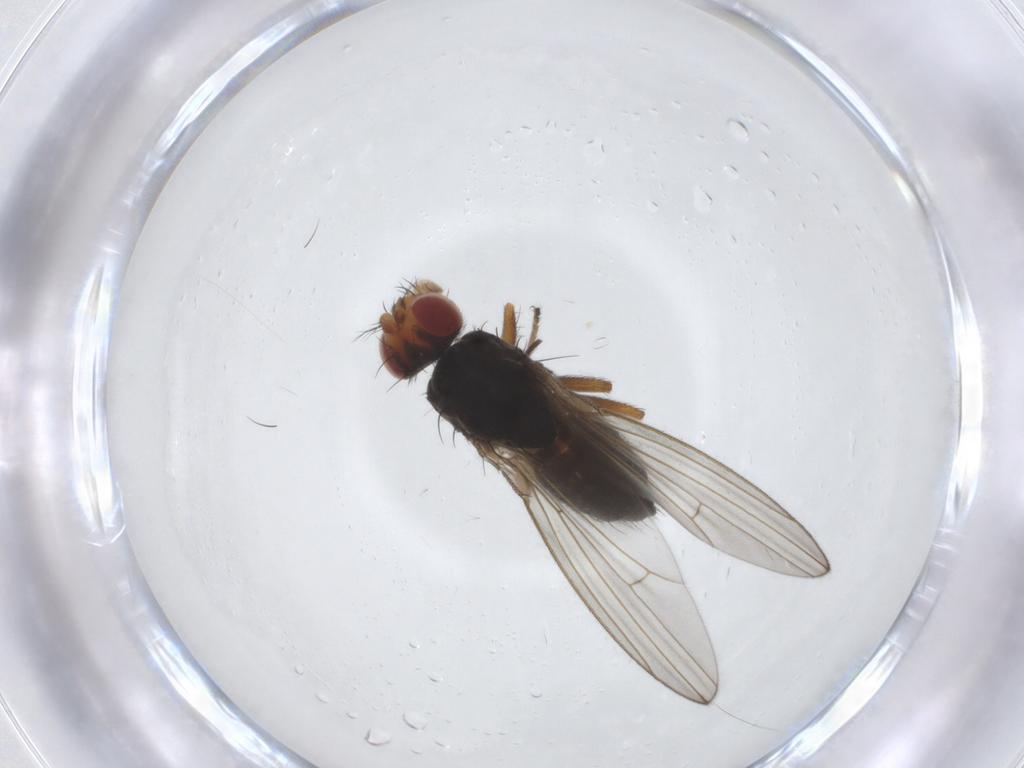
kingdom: Animalia
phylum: Arthropoda
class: Insecta
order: Diptera
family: Drosophilidae
